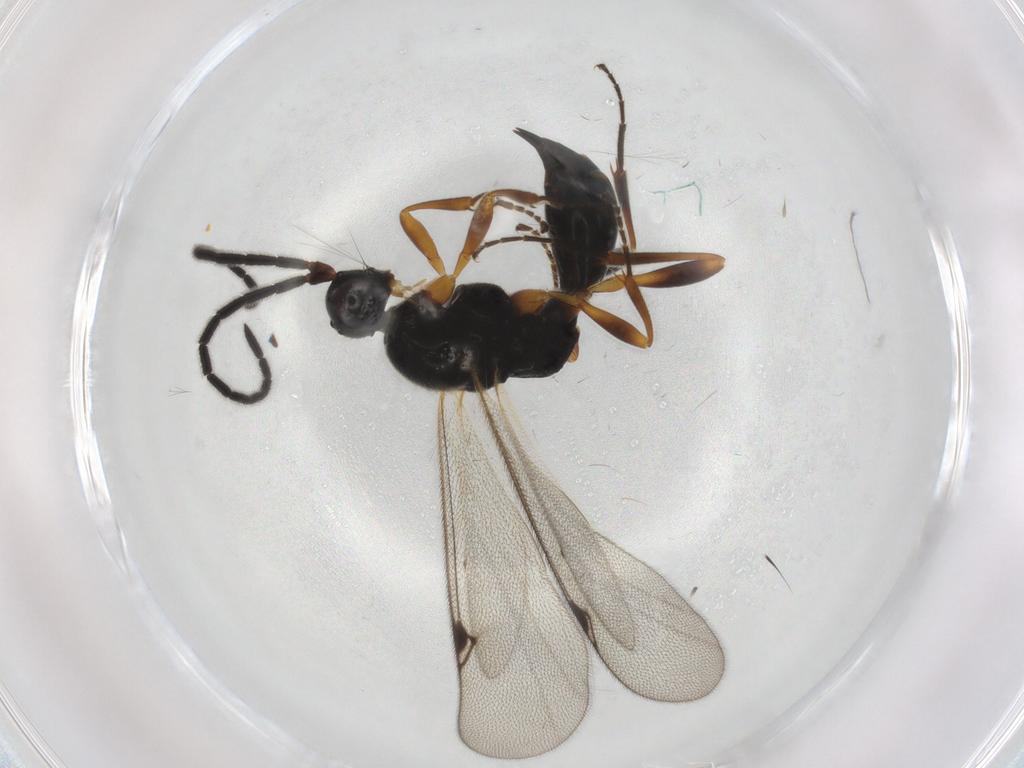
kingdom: Animalia
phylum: Arthropoda
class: Insecta
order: Hymenoptera
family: Proctotrupidae
